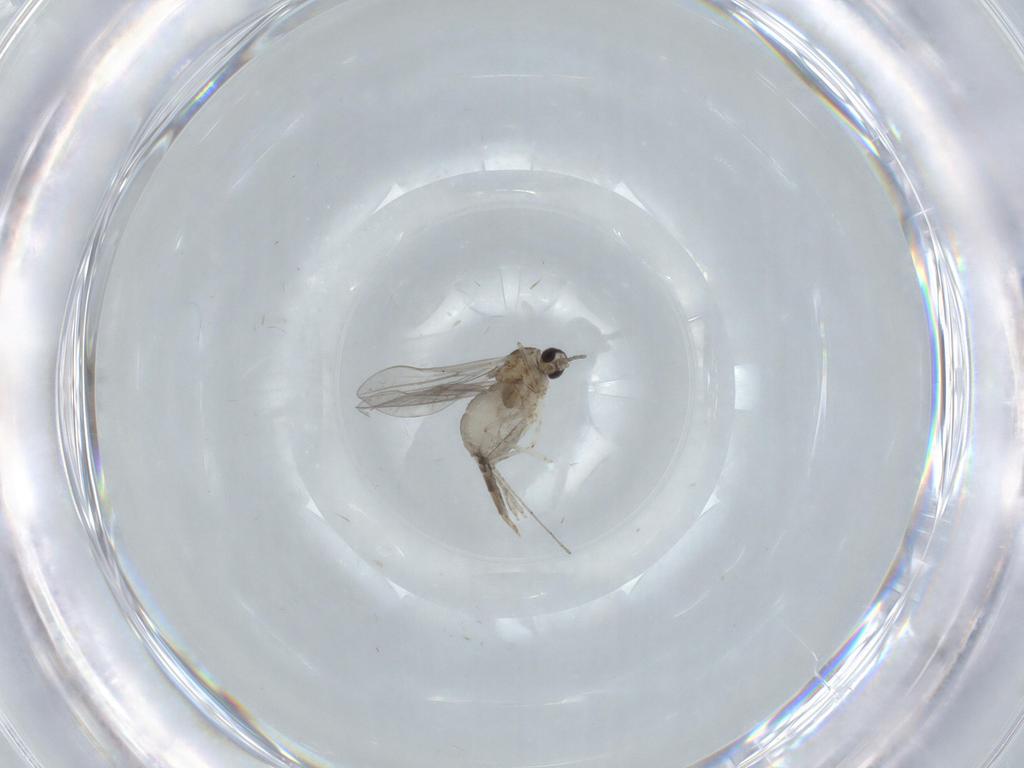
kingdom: Animalia
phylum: Arthropoda
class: Insecta
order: Diptera
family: Cecidomyiidae
